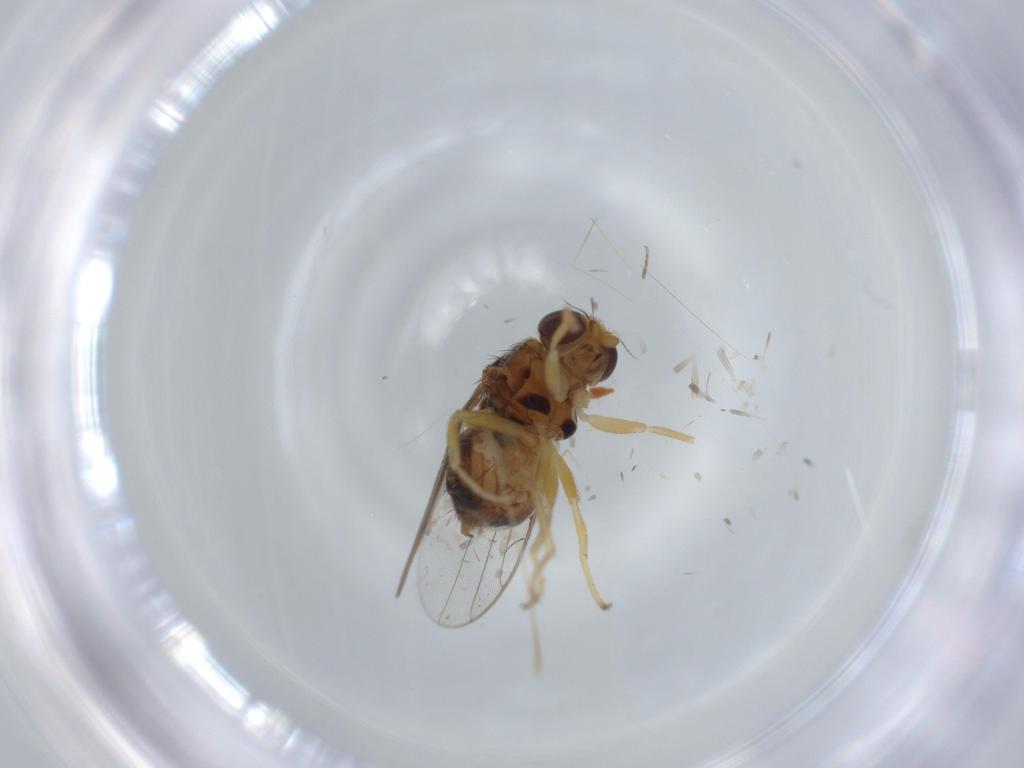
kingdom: Animalia
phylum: Arthropoda
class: Insecta
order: Diptera
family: Chloropidae
